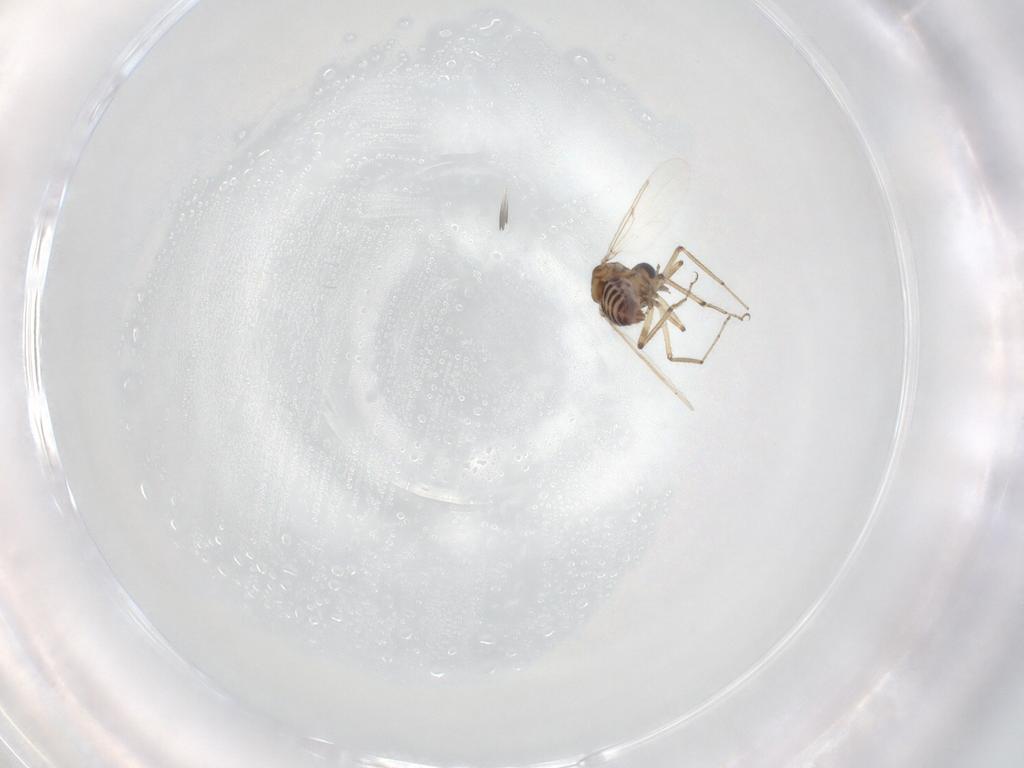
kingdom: Animalia
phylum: Arthropoda
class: Insecta
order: Diptera
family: Ceratopogonidae
